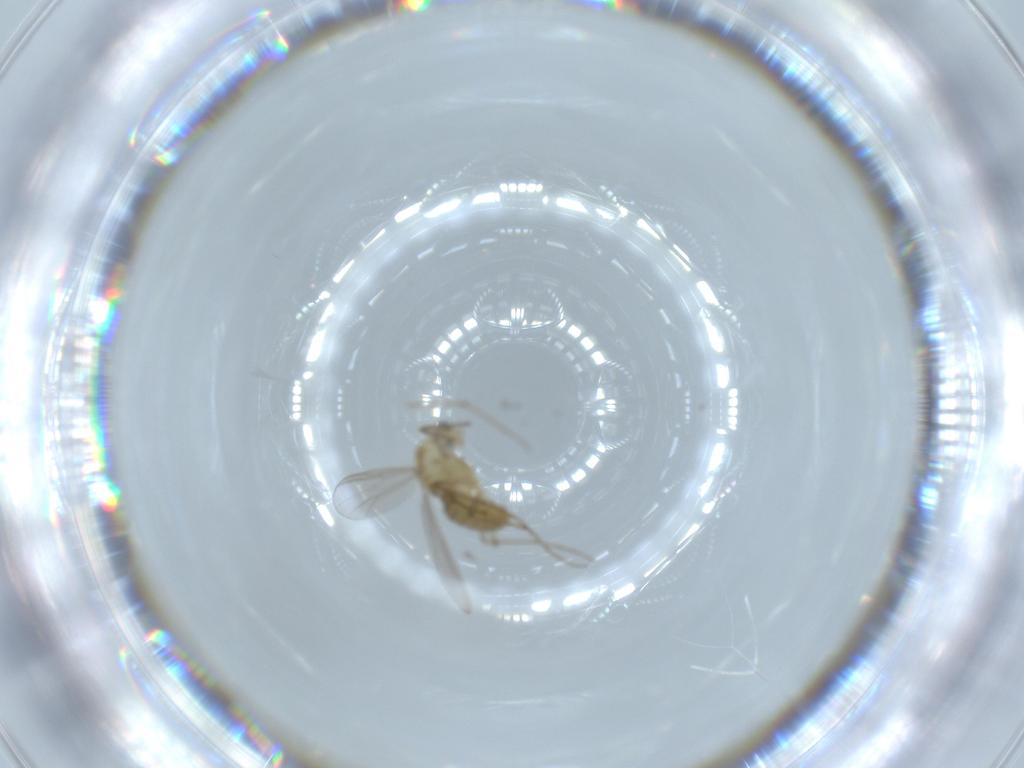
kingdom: Animalia
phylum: Arthropoda
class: Insecta
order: Diptera
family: Chironomidae
